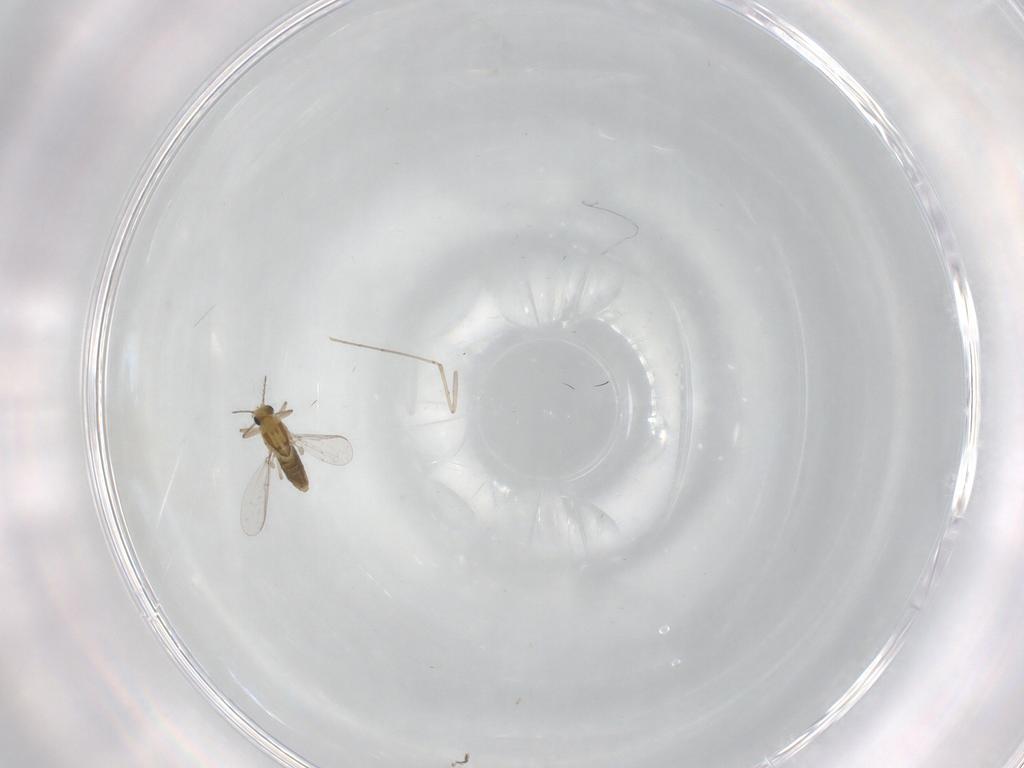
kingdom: Animalia
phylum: Arthropoda
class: Insecta
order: Diptera
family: Chironomidae
